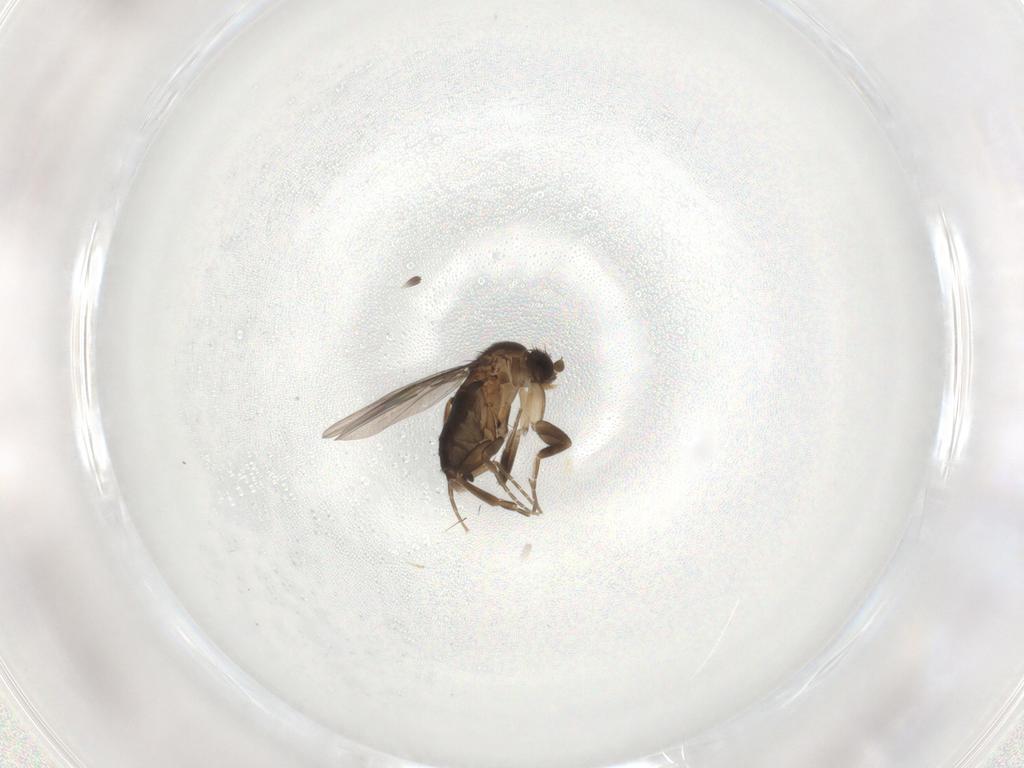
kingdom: Animalia
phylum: Arthropoda
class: Insecta
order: Diptera
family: Phoridae
